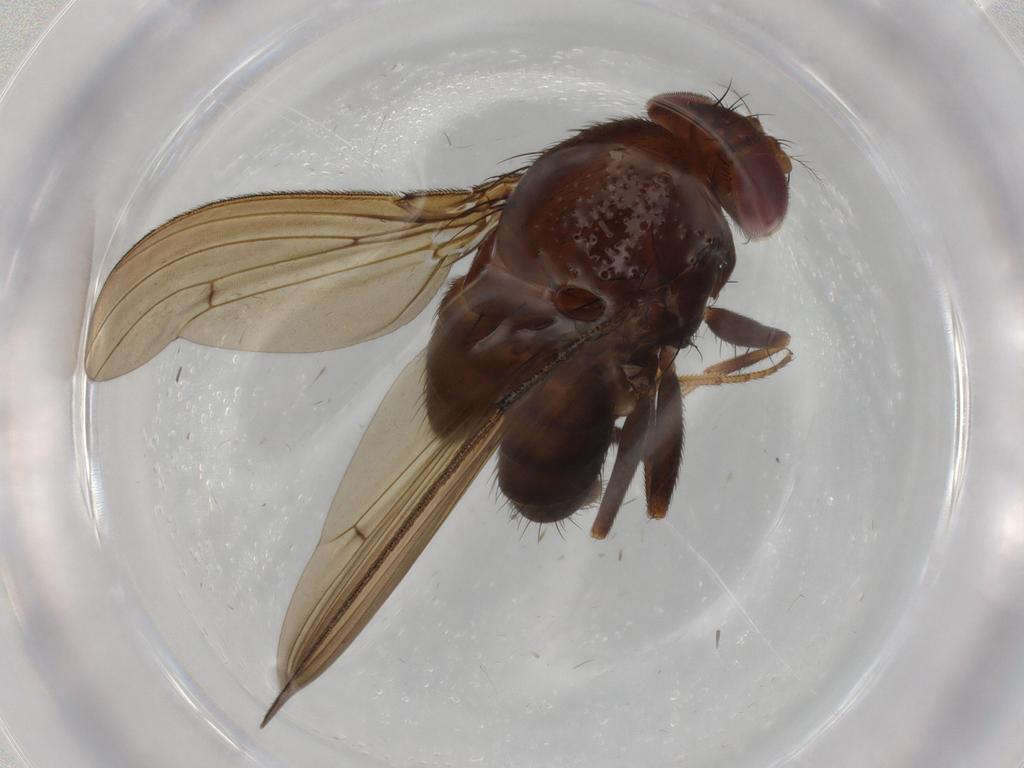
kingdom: Animalia
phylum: Arthropoda
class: Insecta
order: Diptera
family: Drosophilidae
